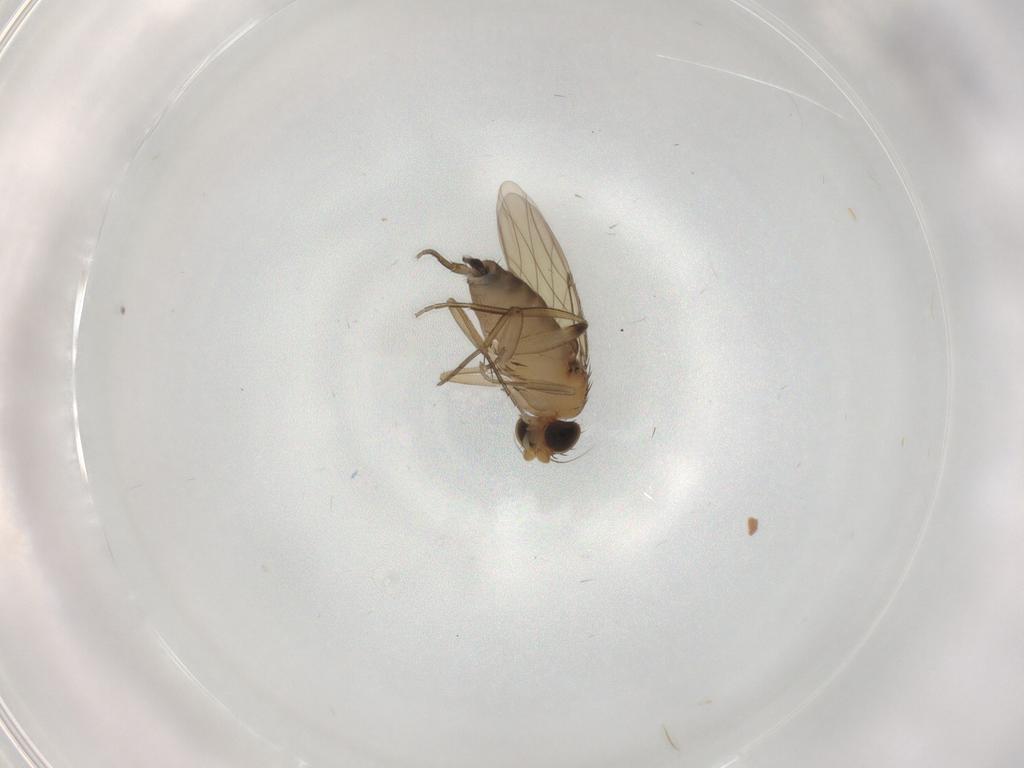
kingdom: Animalia
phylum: Arthropoda
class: Insecta
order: Diptera
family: Phoridae
